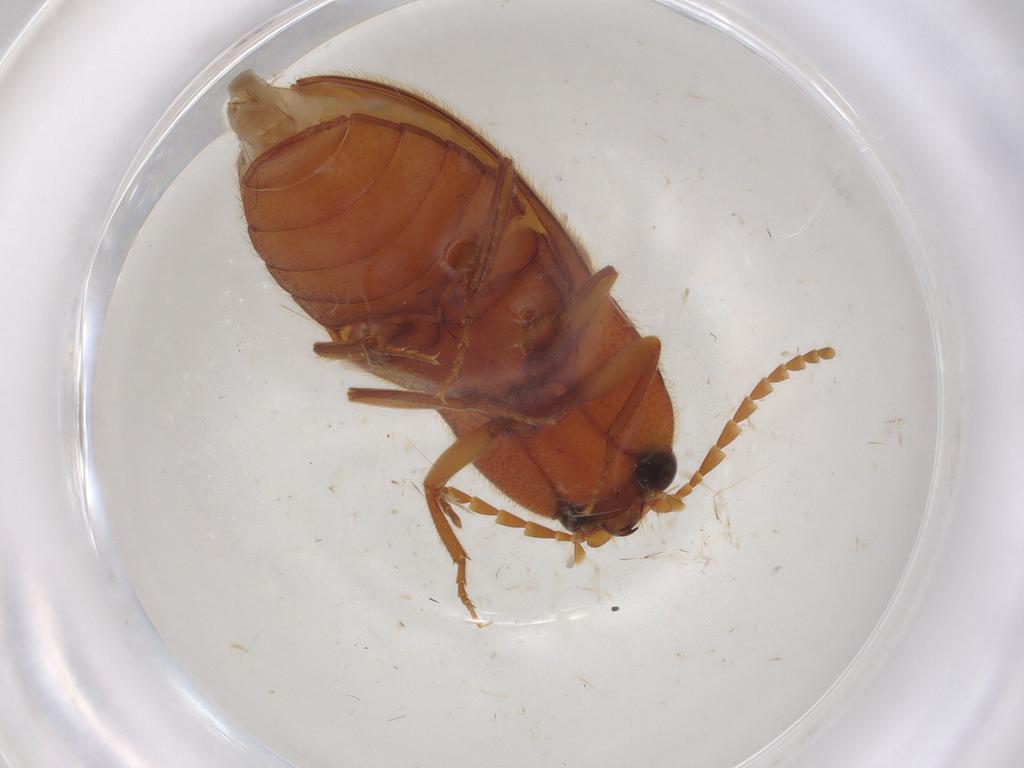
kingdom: Animalia
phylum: Arthropoda
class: Insecta
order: Coleoptera
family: Elateridae
